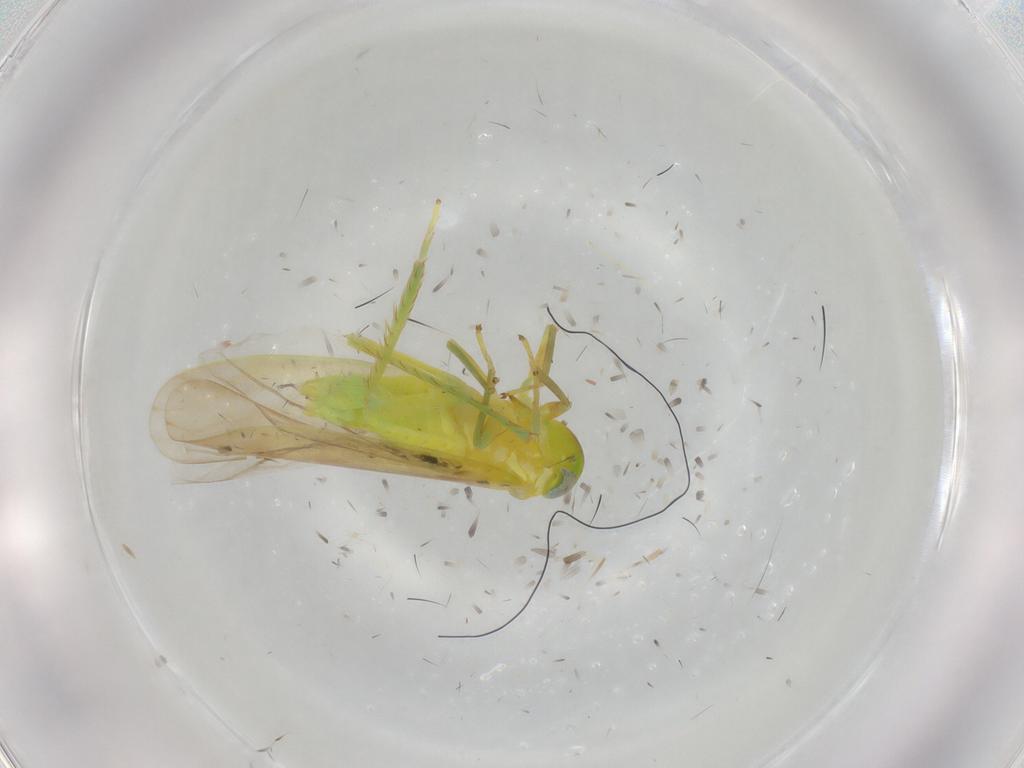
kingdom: Animalia
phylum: Arthropoda
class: Insecta
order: Hemiptera
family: Cicadellidae
